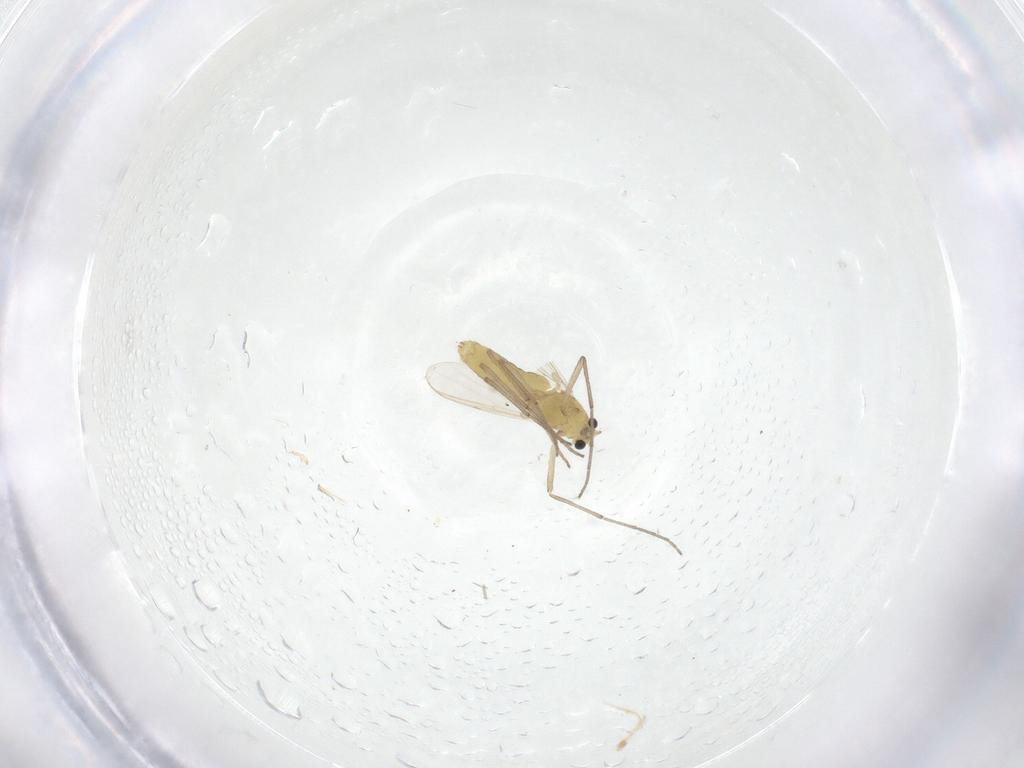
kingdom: Animalia
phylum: Arthropoda
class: Insecta
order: Diptera
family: Chironomidae
